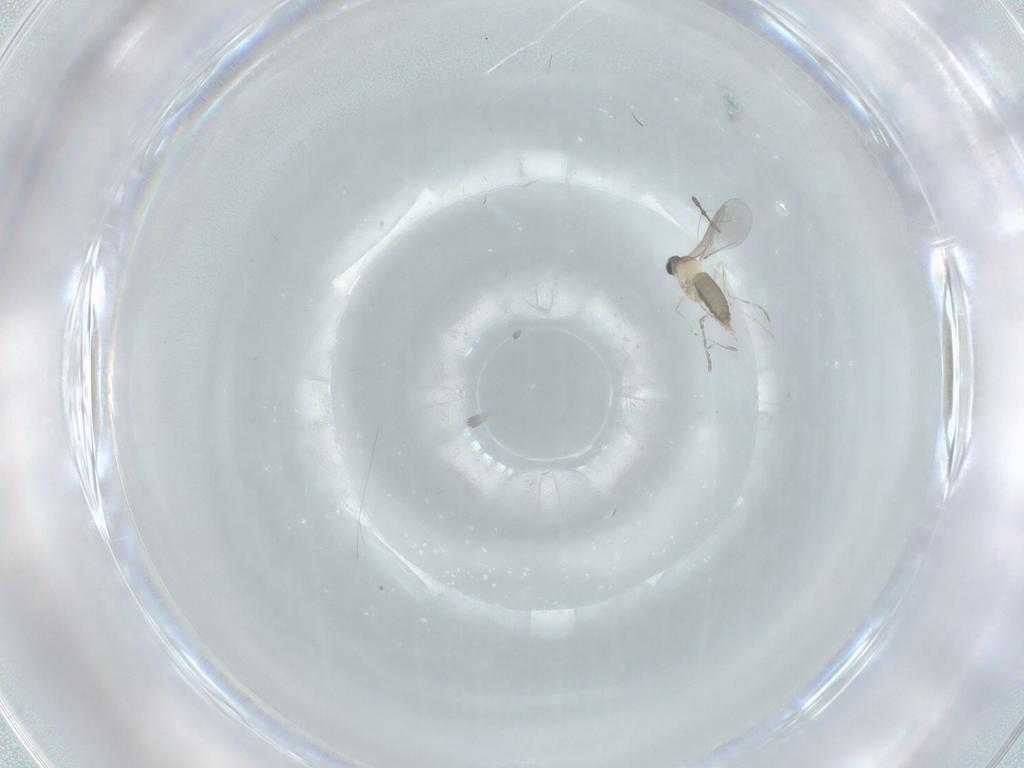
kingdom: Animalia
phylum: Arthropoda
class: Insecta
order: Diptera
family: Chironomidae
